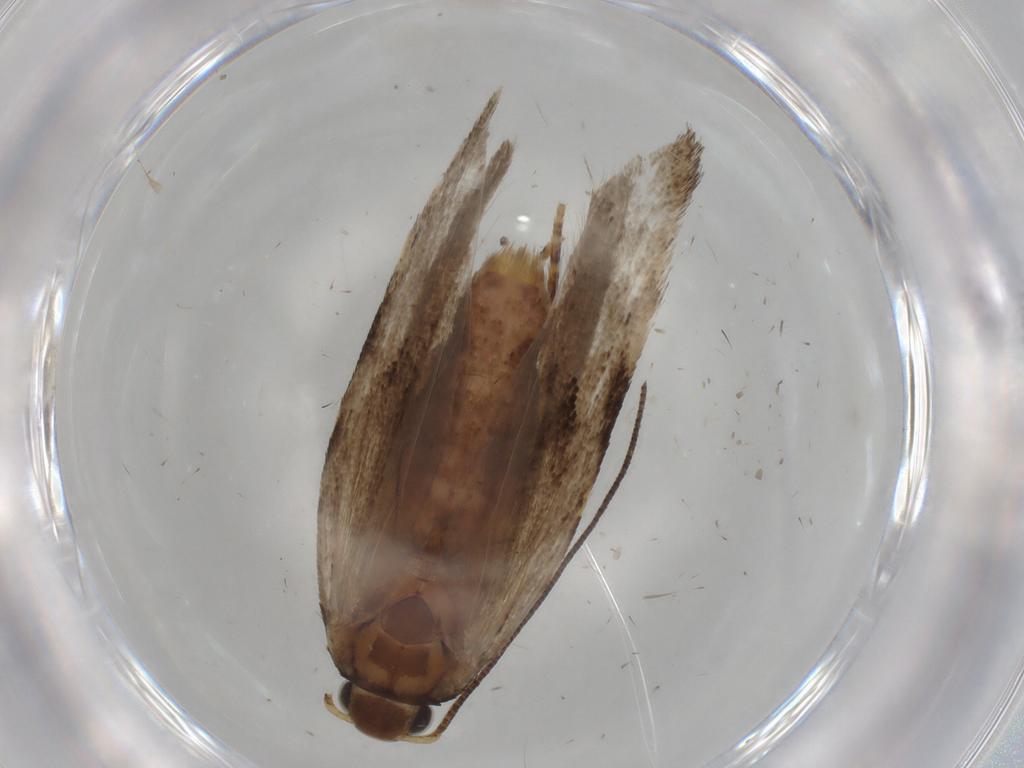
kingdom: Animalia
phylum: Arthropoda
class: Insecta
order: Lepidoptera
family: Gelechiidae
